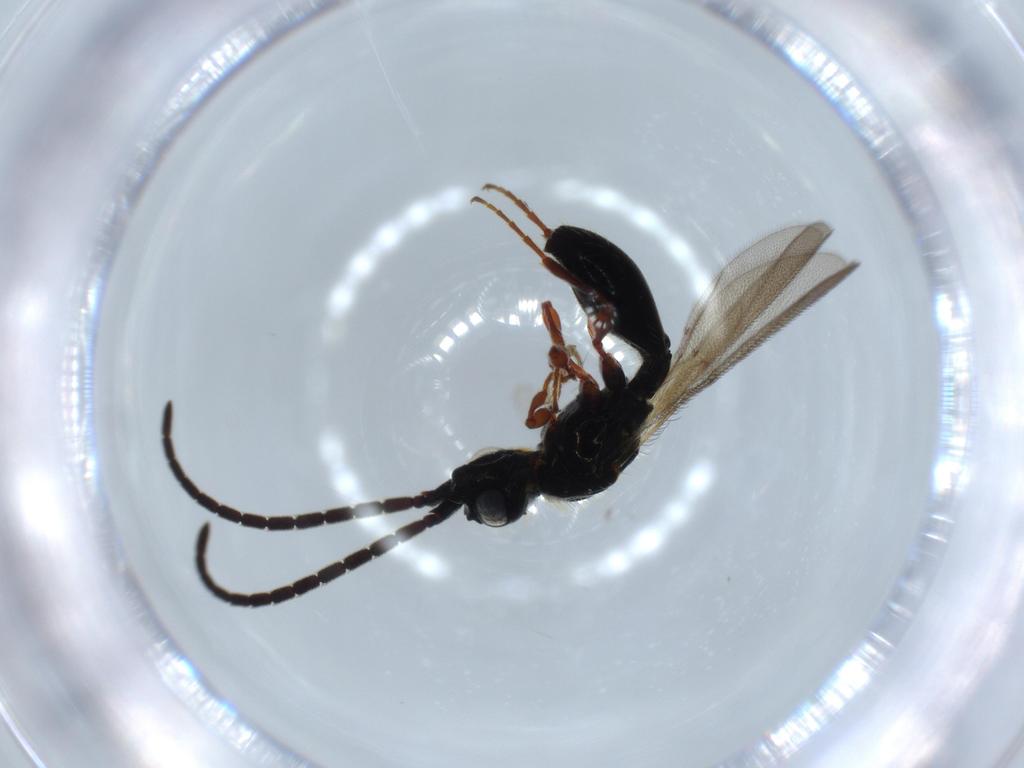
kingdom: Animalia
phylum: Arthropoda
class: Insecta
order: Hymenoptera
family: Diapriidae
